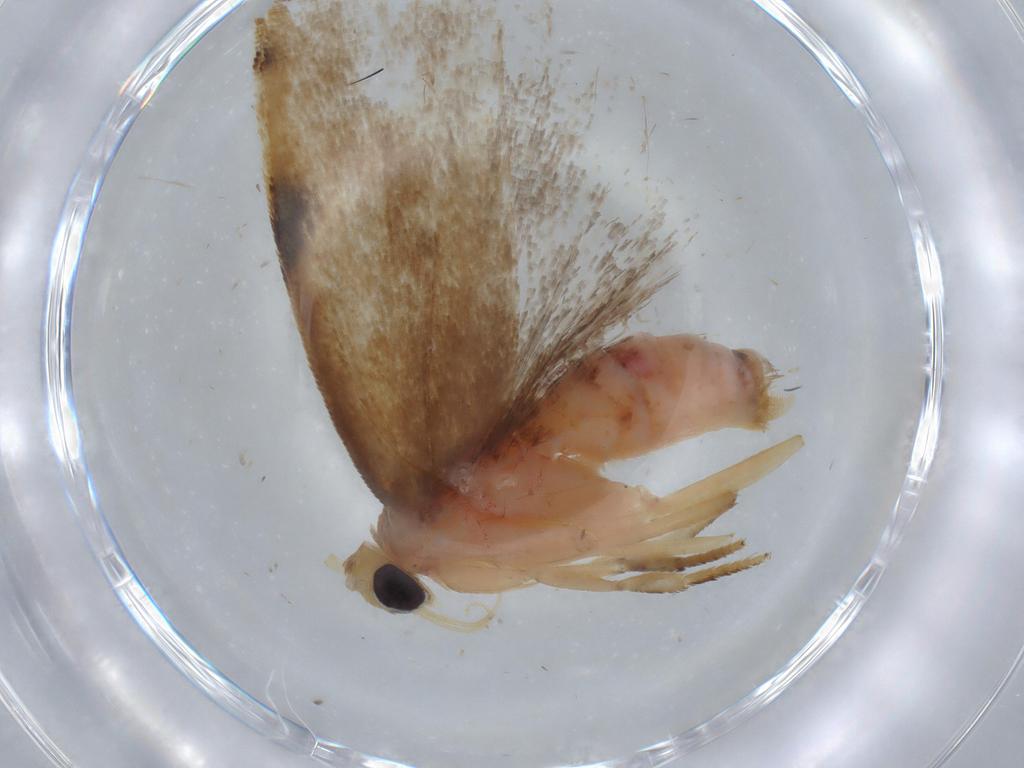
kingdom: Animalia
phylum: Arthropoda
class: Insecta
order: Lepidoptera
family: Depressariidae
